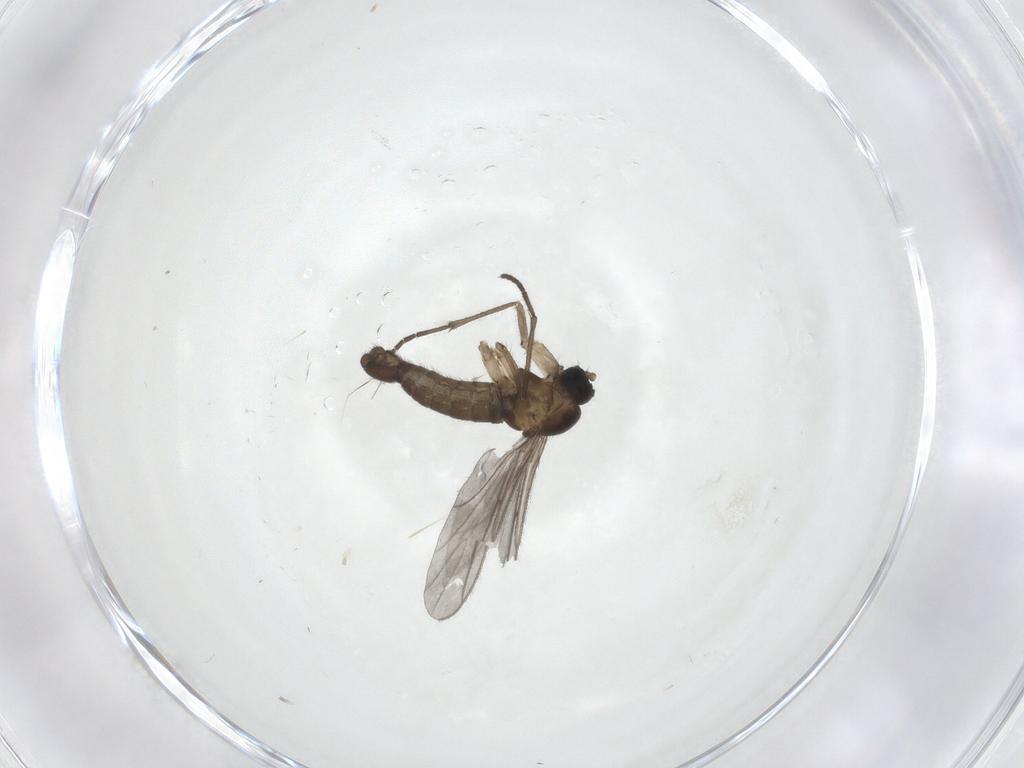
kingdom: Animalia
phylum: Arthropoda
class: Insecta
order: Diptera
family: Sciaridae
